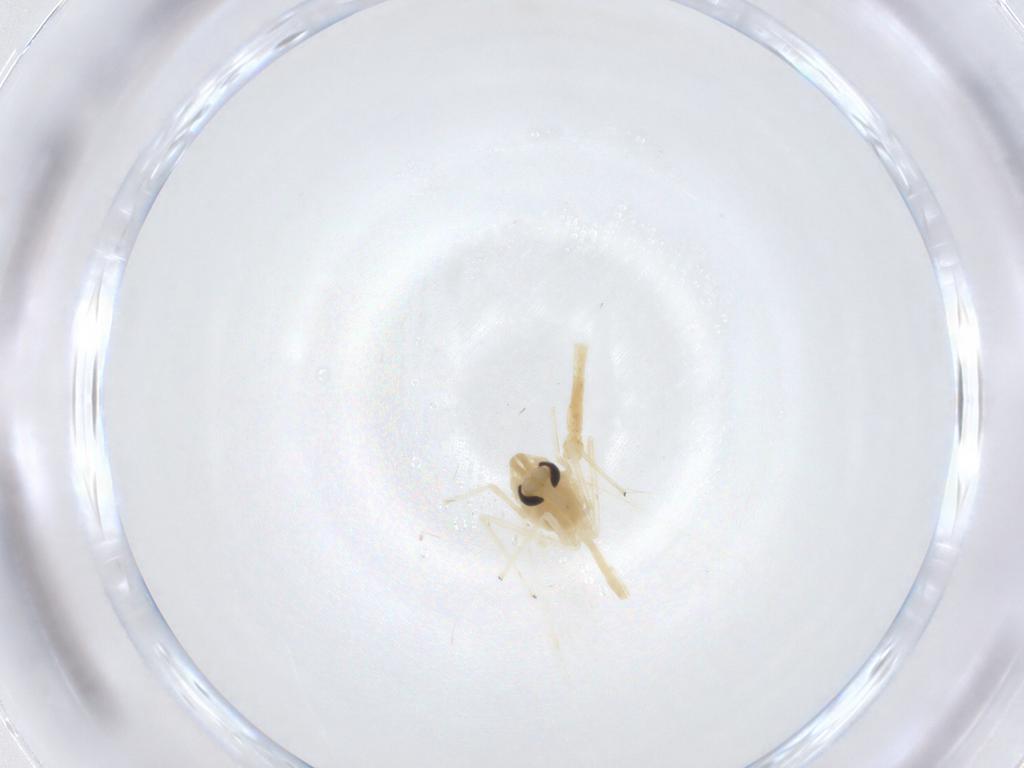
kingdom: Animalia
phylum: Arthropoda
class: Insecta
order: Diptera
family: Chironomidae
